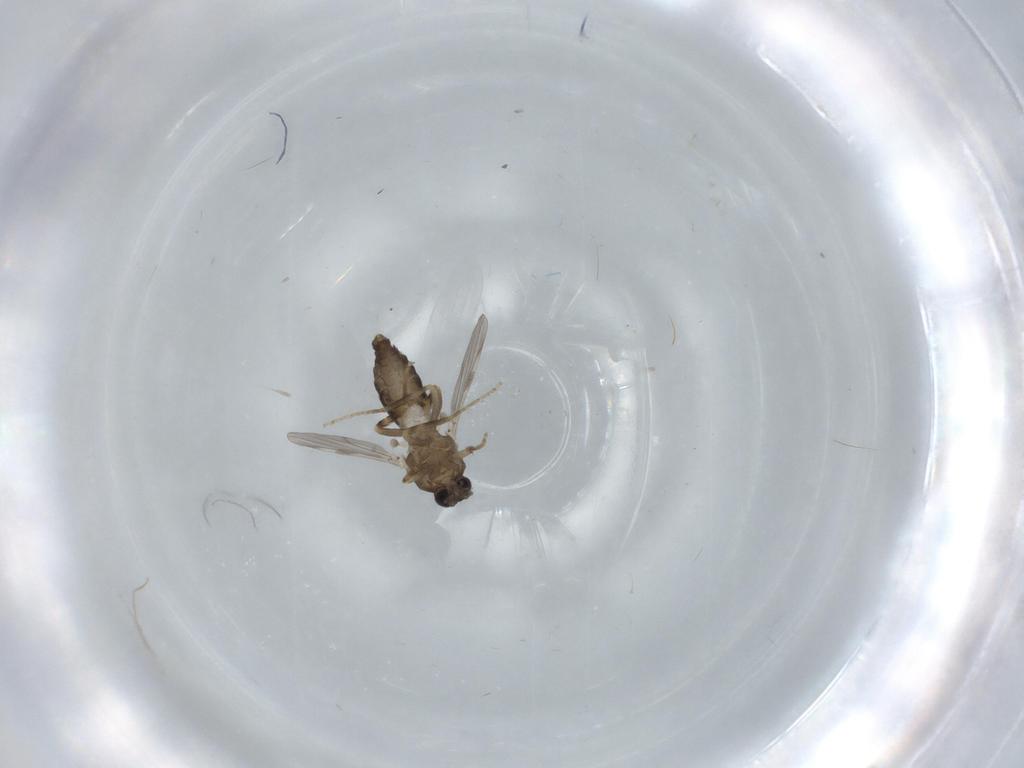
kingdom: Animalia
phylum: Arthropoda
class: Insecta
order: Diptera
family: Ceratopogonidae
